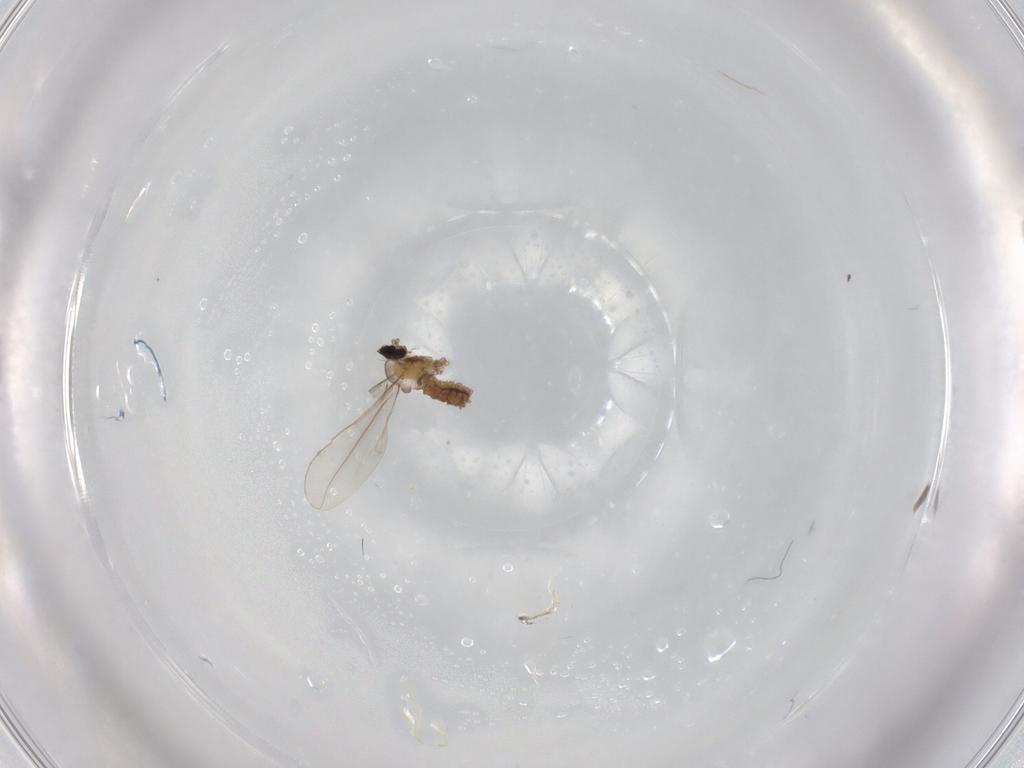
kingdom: Animalia
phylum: Arthropoda
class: Insecta
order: Diptera
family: Cecidomyiidae
